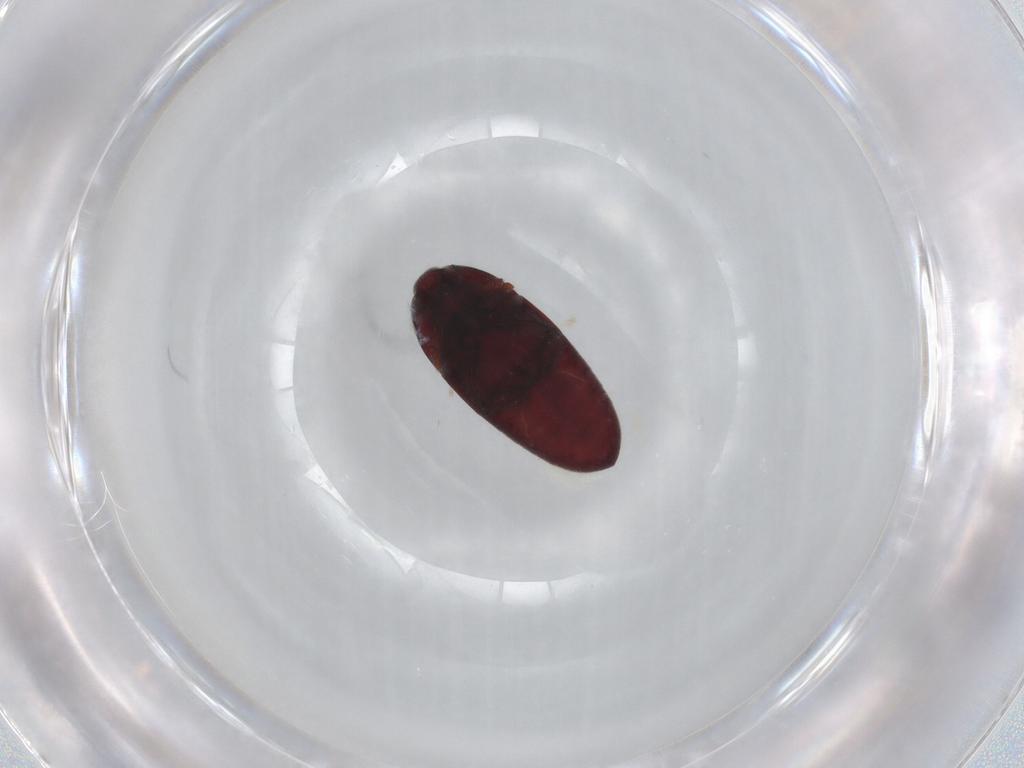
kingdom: Animalia
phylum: Arthropoda
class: Insecta
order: Coleoptera
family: Throscidae
